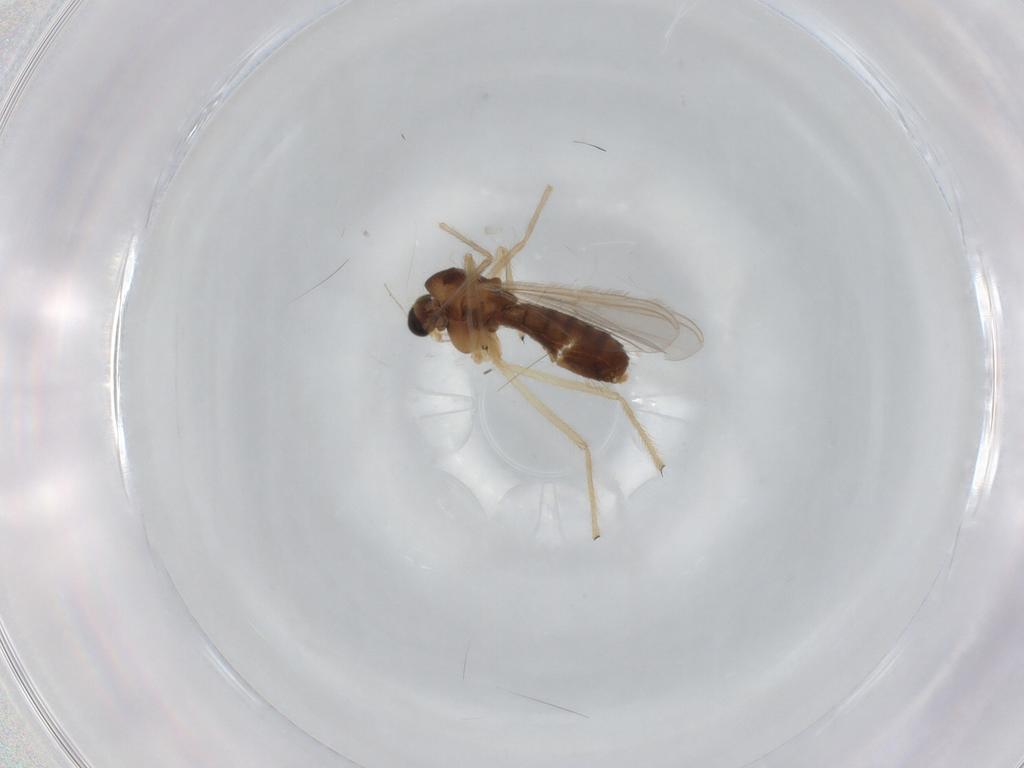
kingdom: Animalia
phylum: Arthropoda
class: Insecta
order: Diptera
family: Chironomidae
